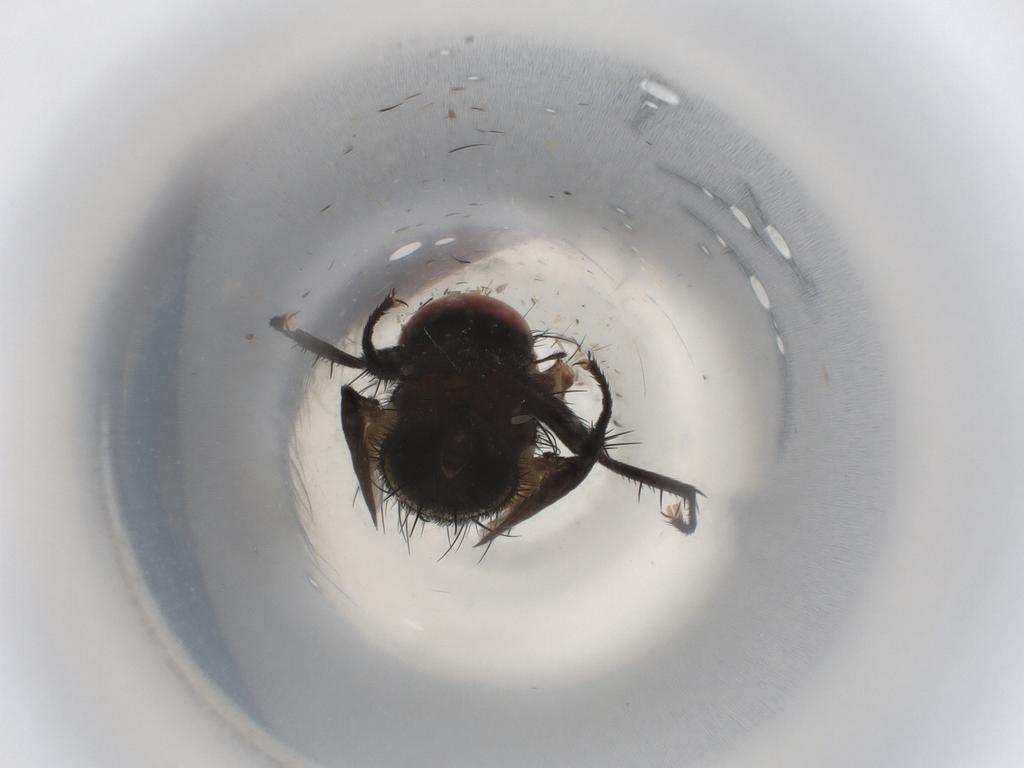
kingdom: Animalia
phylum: Arthropoda
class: Insecta
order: Diptera
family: Tachinidae
